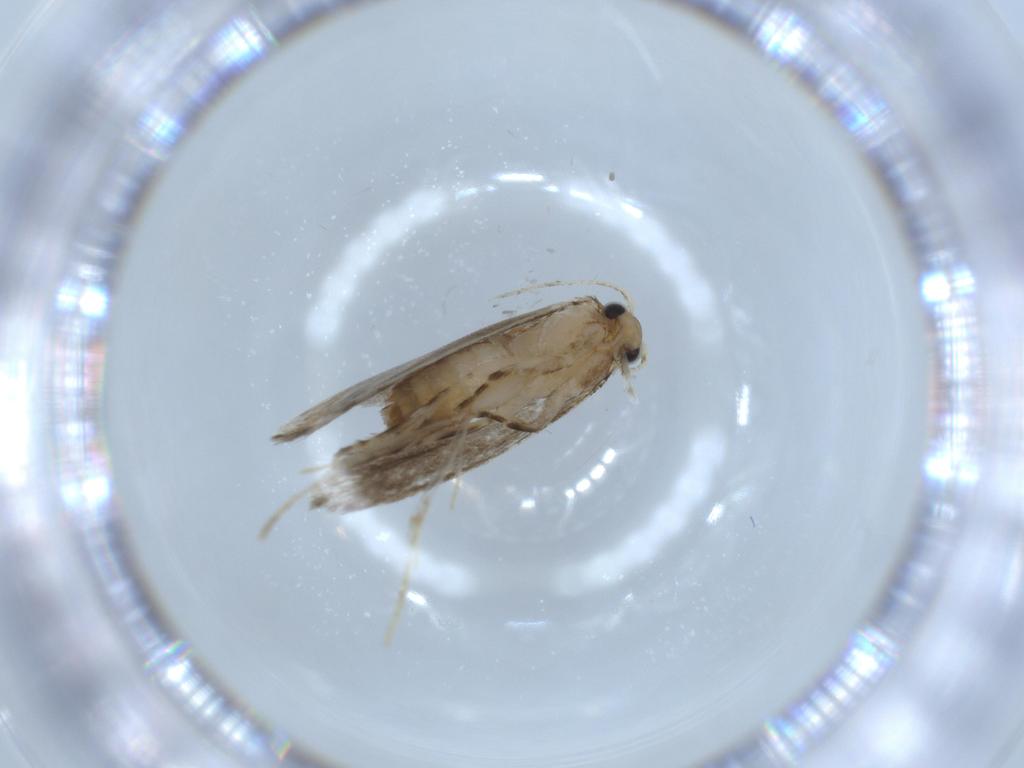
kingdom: Animalia
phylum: Arthropoda
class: Insecta
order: Lepidoptera
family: Tineidae
